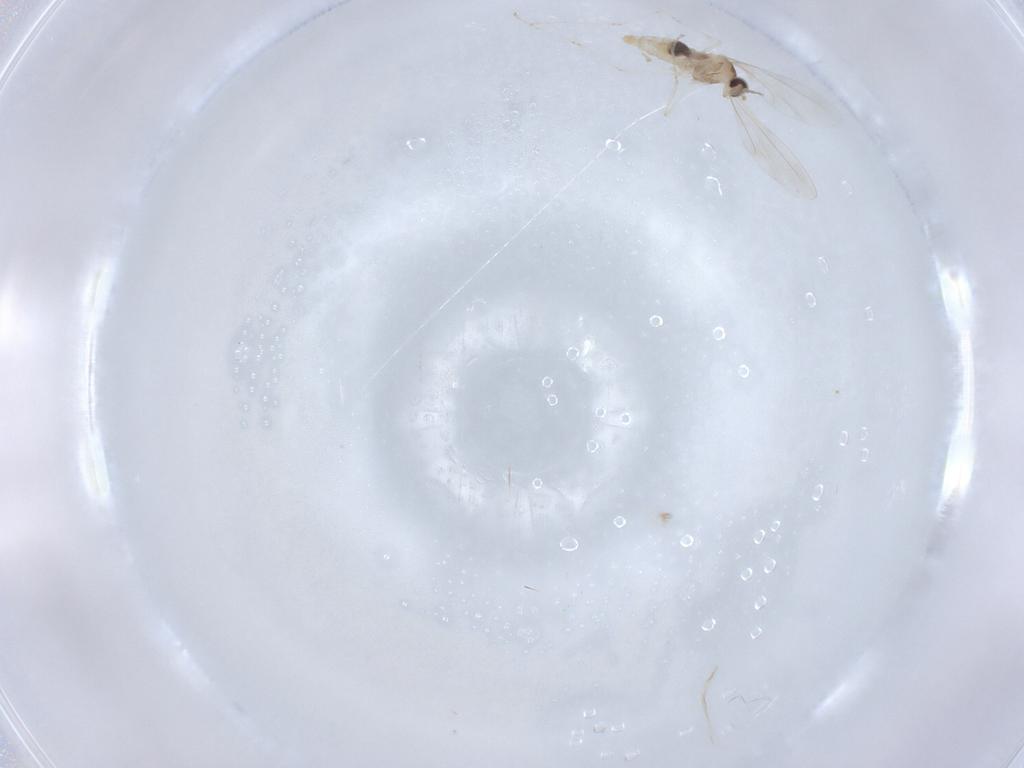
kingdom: Animalia
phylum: Arthropoda
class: Insecta
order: Diptera
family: Cecidomyiidae
